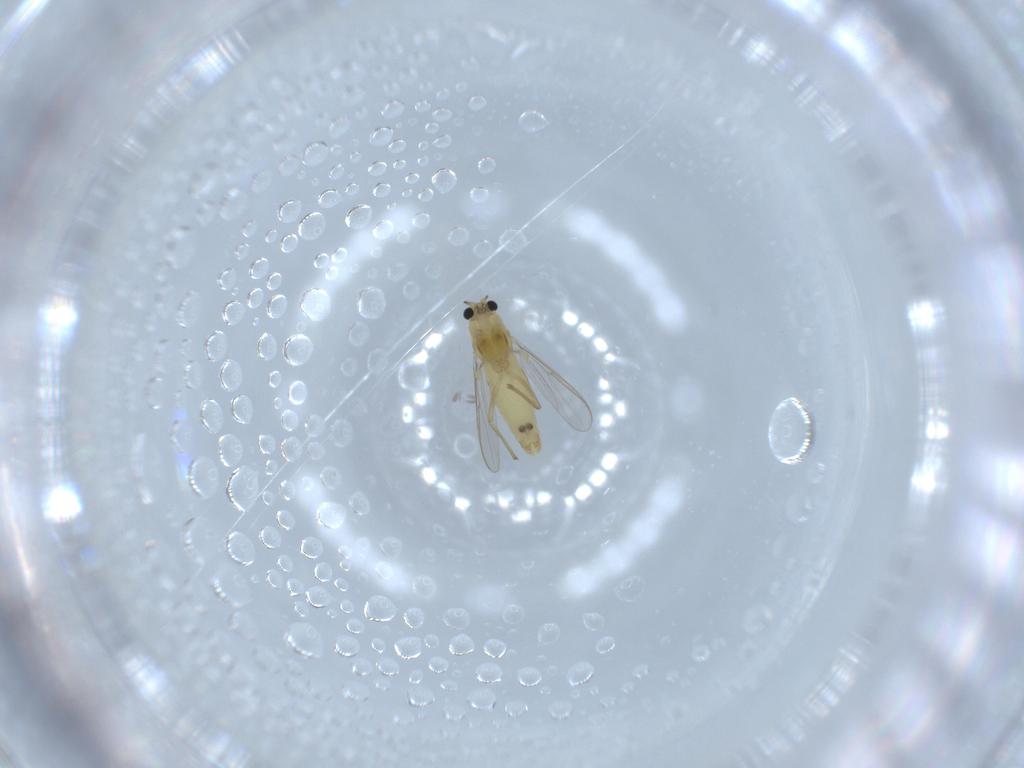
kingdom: Animalia
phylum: Arthropoda
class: Insecta
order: Diptera
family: Chironomidae
